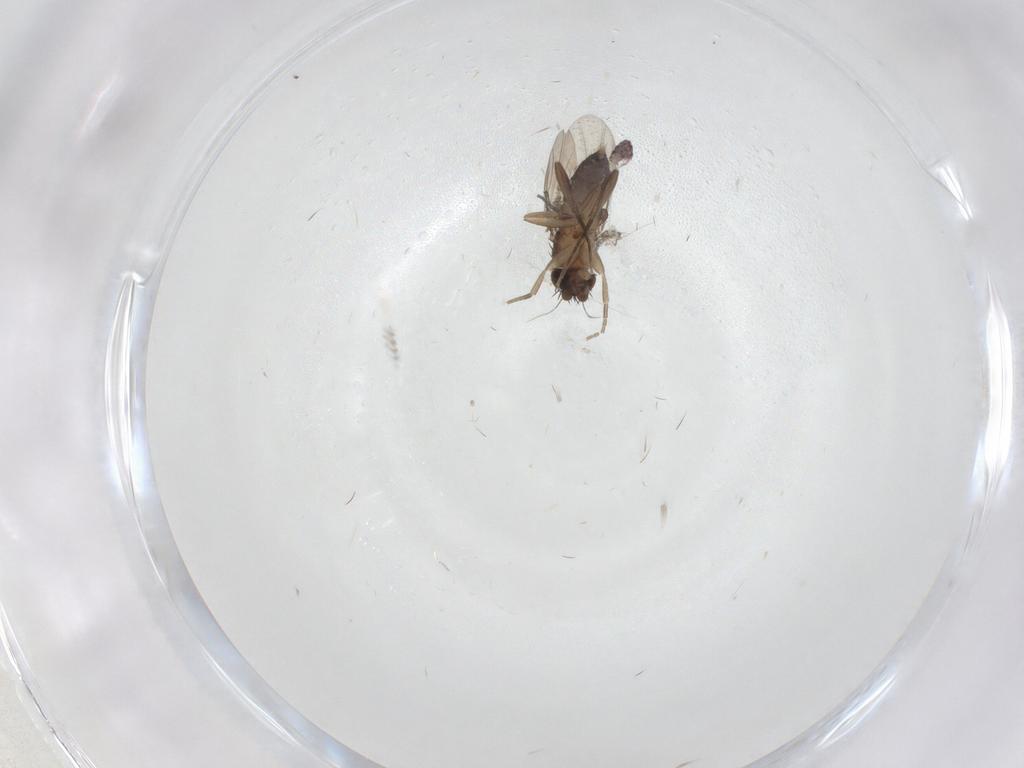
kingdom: Animalia
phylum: Arthropoda
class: Insecta
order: Diptera
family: Phoridae
